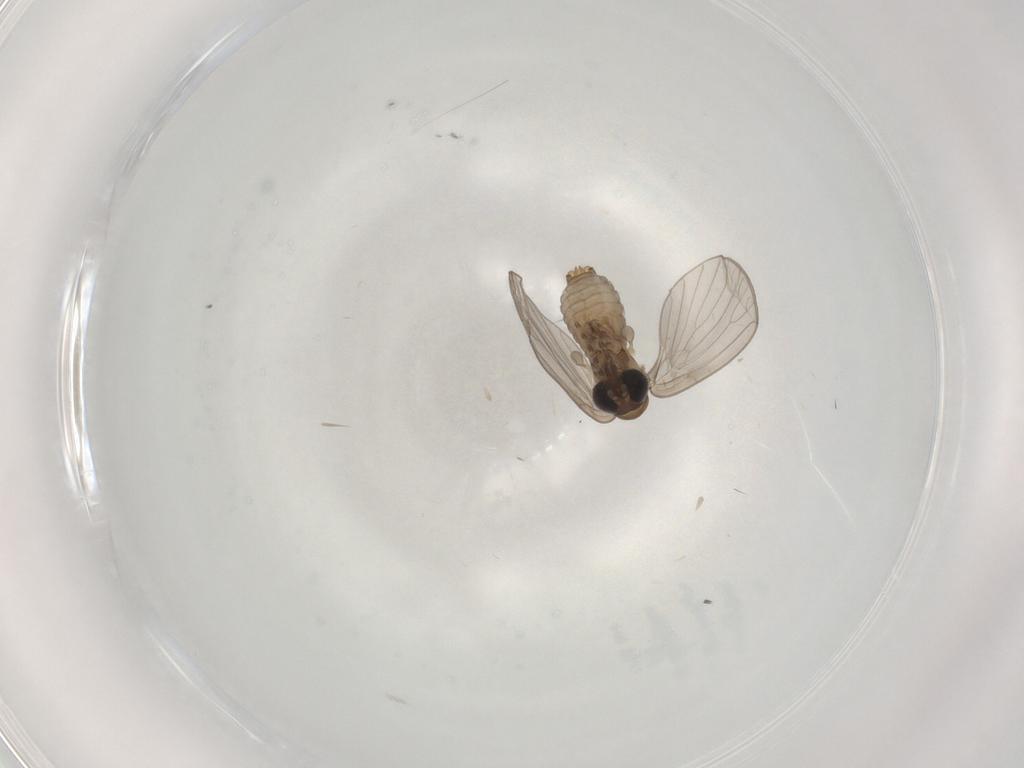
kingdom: Animalia
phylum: Arthropoda
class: Insecta
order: Diptera
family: Psychodidae
